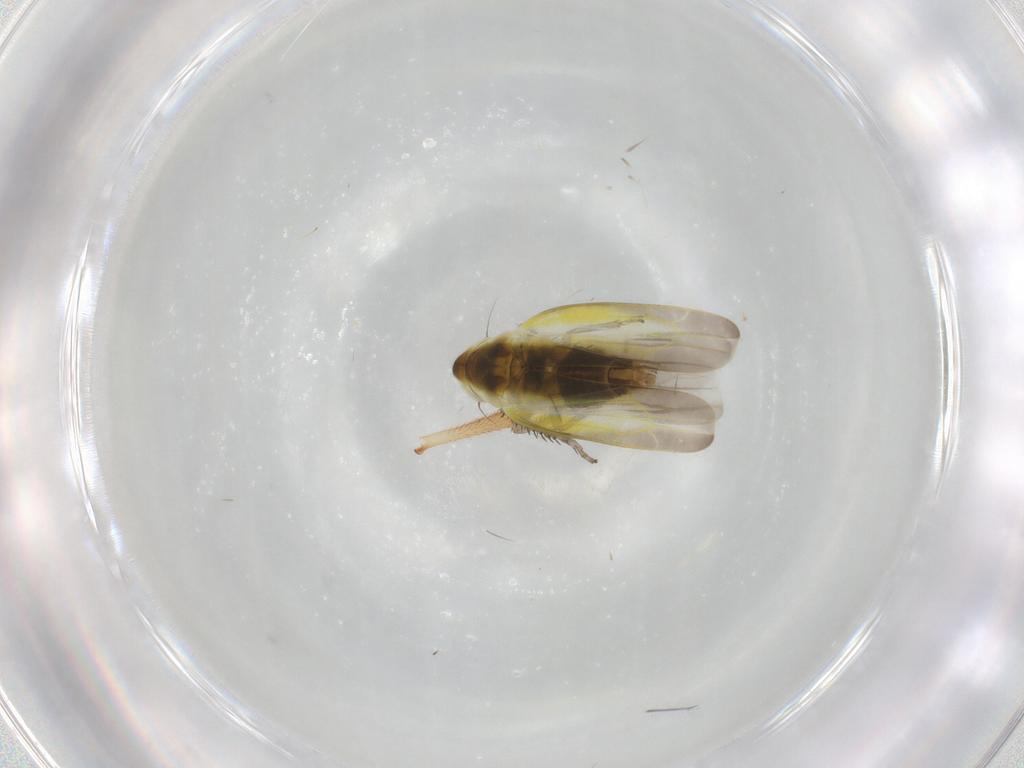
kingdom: Animalia
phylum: Arthropoda
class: Insecta
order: Hemiptera
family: Cicadellidae
